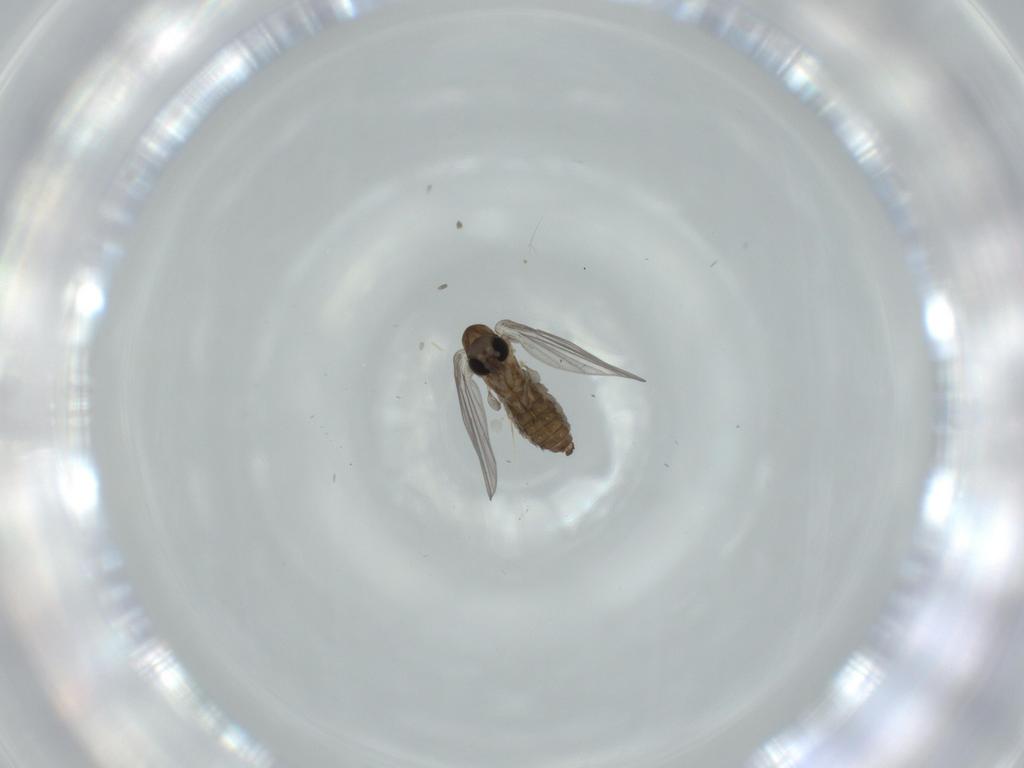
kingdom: Animalia
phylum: Arthropoda
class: Insecta
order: Diptera
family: Psychodidae
